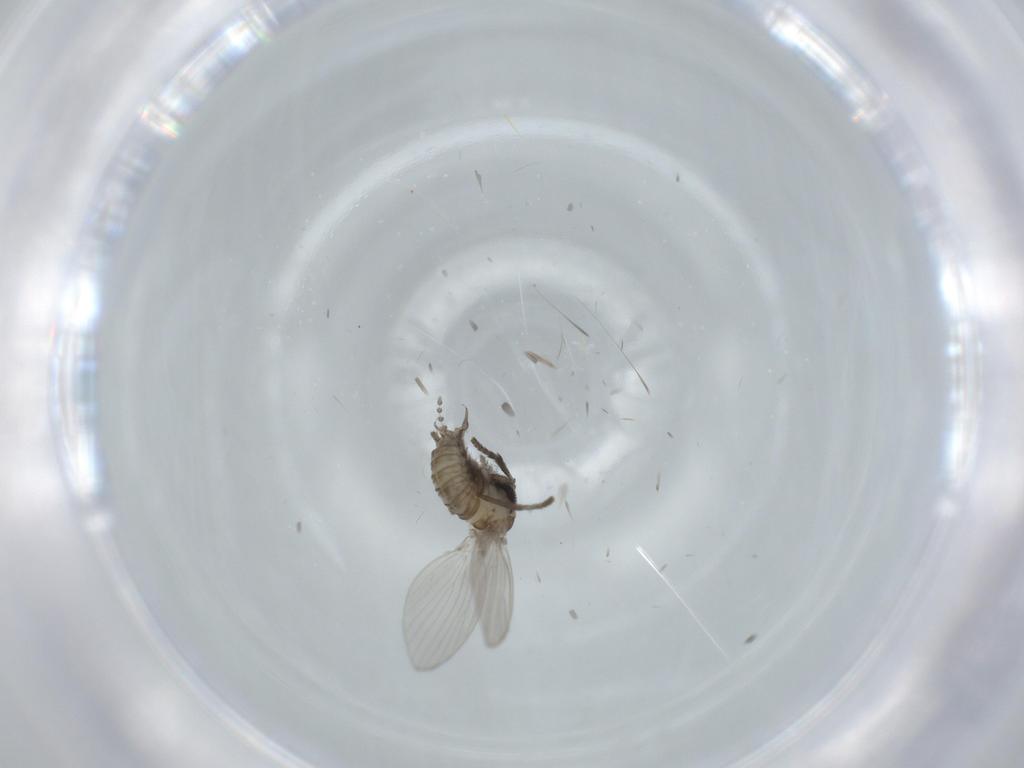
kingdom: Animalia
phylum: Arthropoda
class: Insecta
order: Diptera
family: Psychodidae
